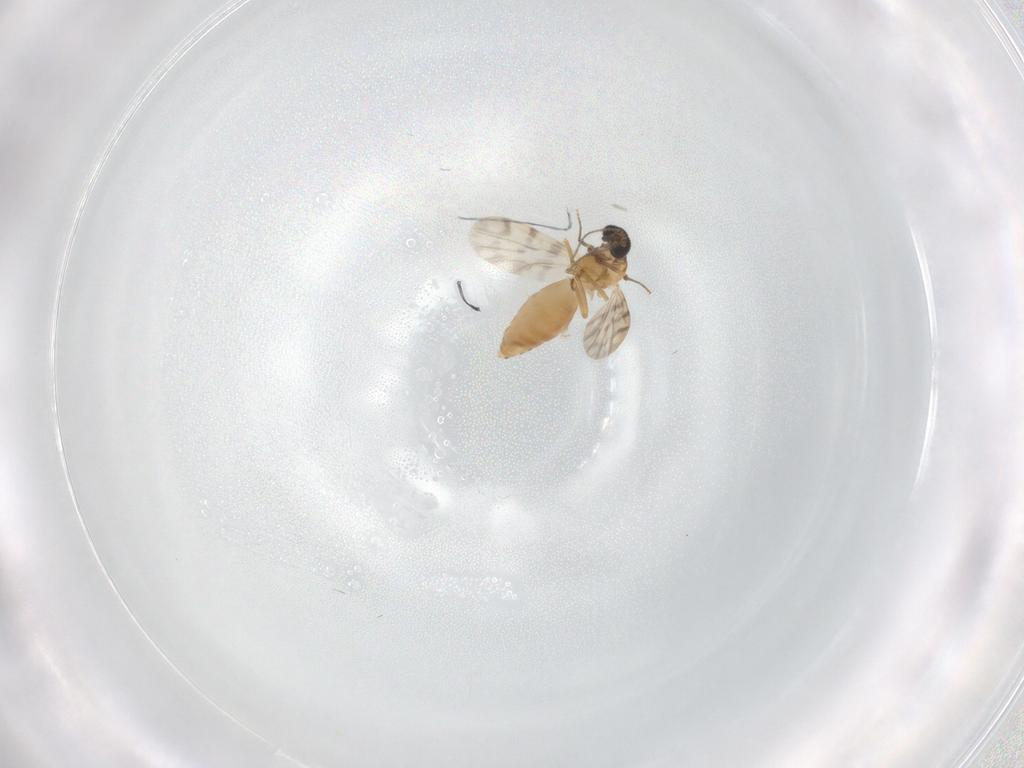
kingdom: Animalia
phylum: Arthropoda
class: Insecta
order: Diptera
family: Ceratopogonidae
